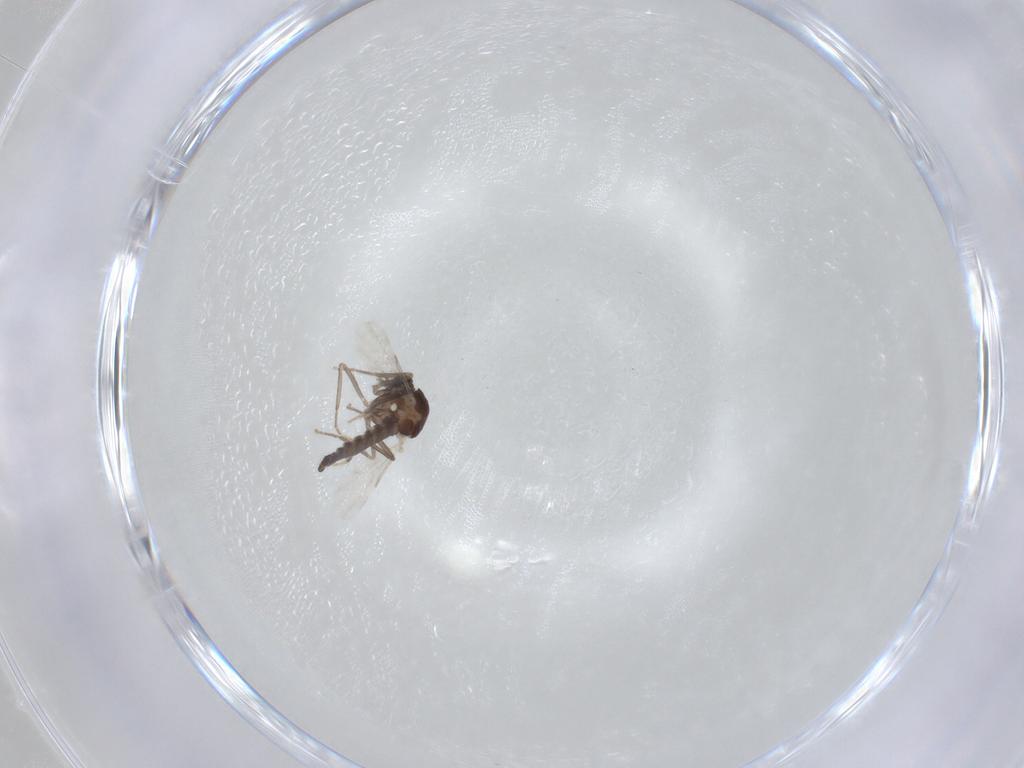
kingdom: Animalia
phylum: Arthropoda
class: Insecta
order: Diptera
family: Ceratopogonidae
